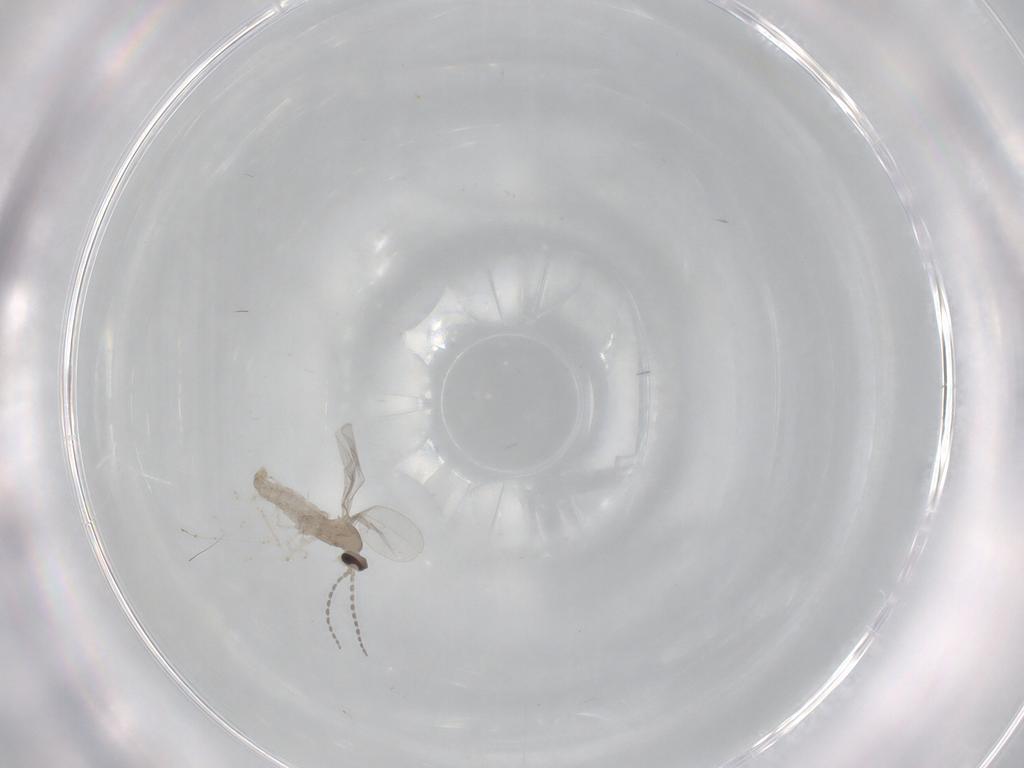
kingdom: Animalia
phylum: Arthropoda
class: Insecta
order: Diptera
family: Cecidomyiidae
